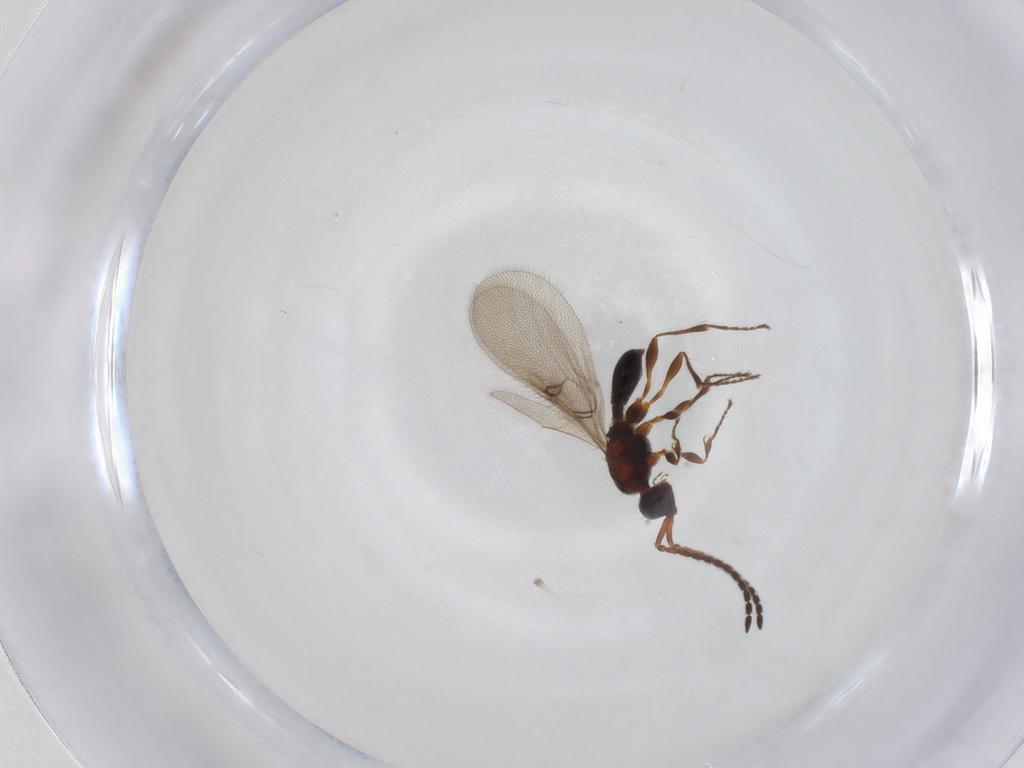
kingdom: Animalia
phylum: Arthropoda
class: Insecta
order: Hymenoptera
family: Diapriidae
